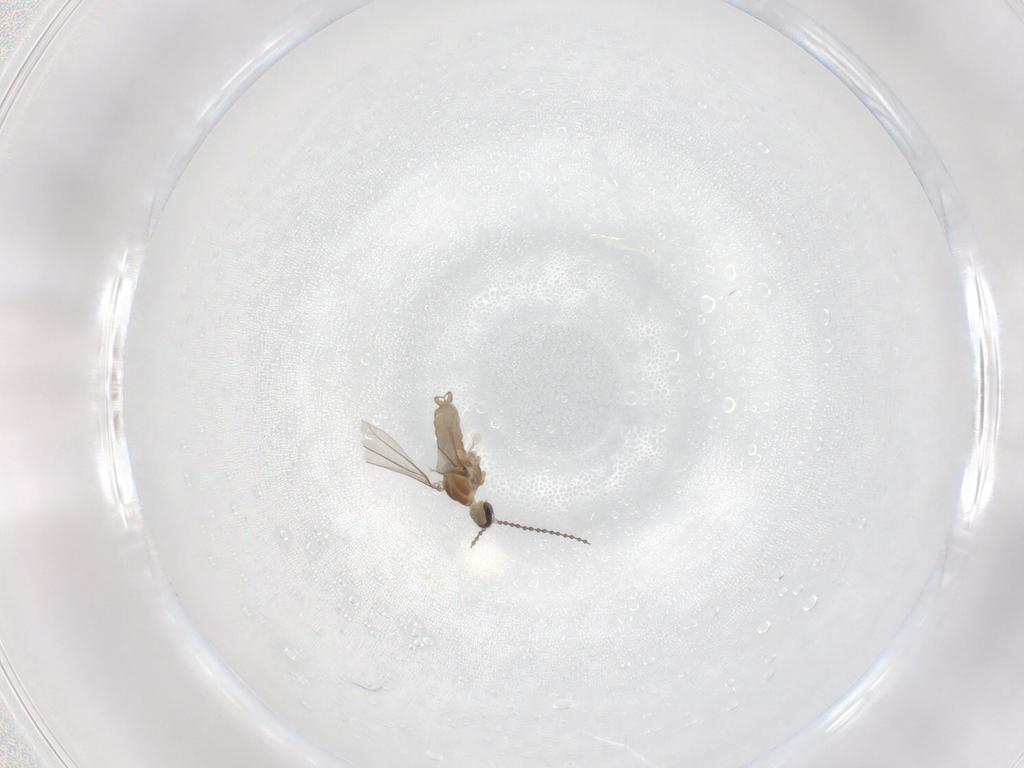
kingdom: Animalia
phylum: Arthropoda
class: Insecta
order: Diptera
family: Cecidomyiidae
